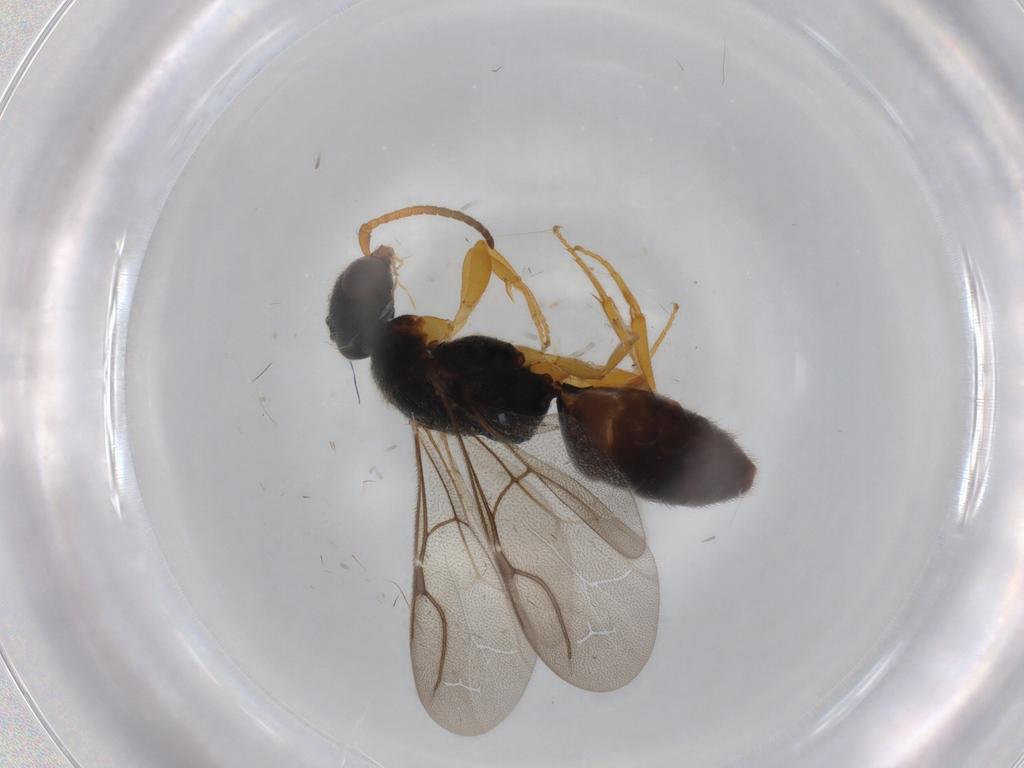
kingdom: Animalia
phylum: Arthropoda
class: Insecta
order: Hymenoptera
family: Bethylidae
